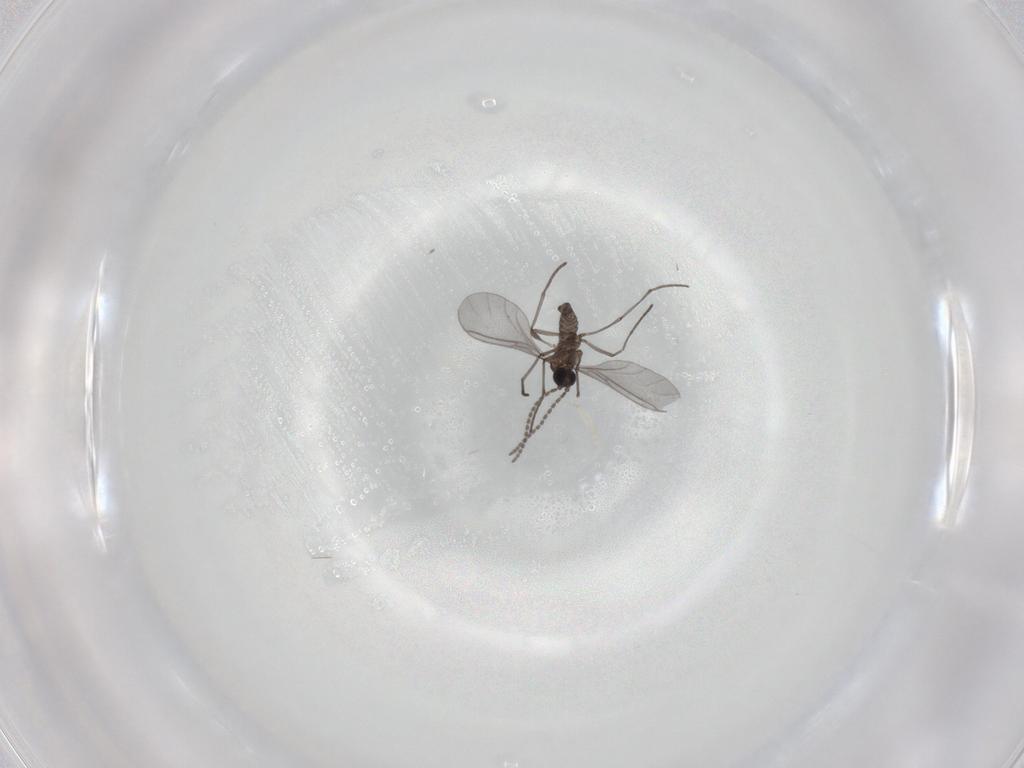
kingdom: Animalia
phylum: Arthropoda
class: Insecta
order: Diptera
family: Sciaridae
